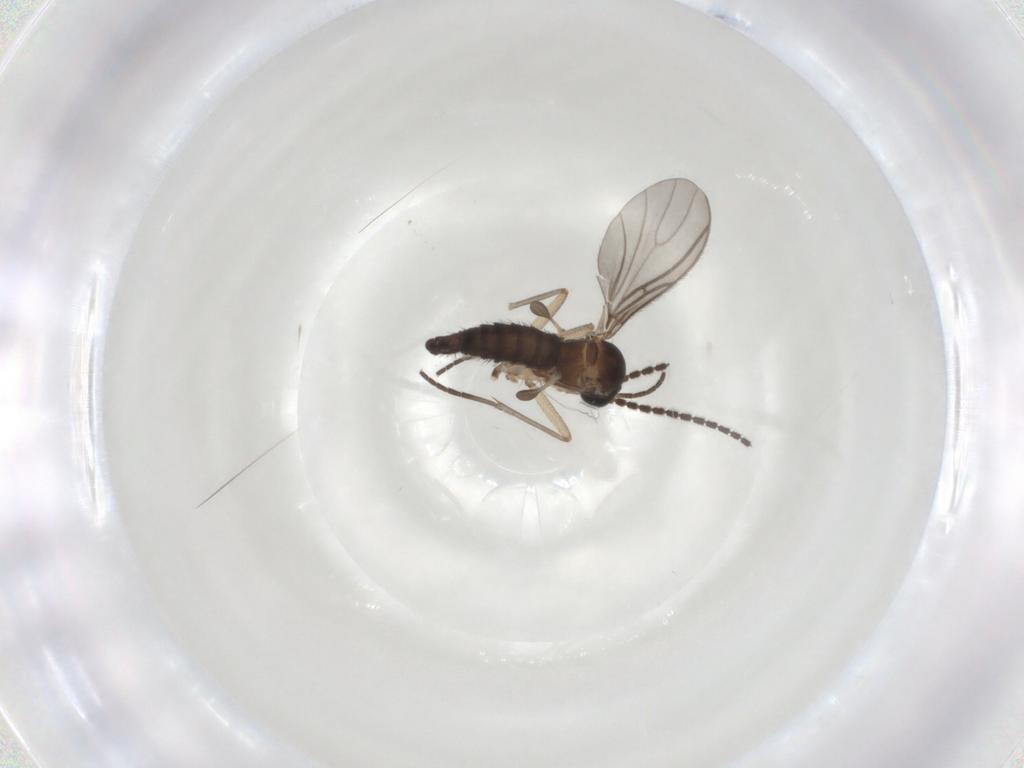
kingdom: Animalia
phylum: Arthropoda
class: Insecta
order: Diptera
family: Sciaridae
